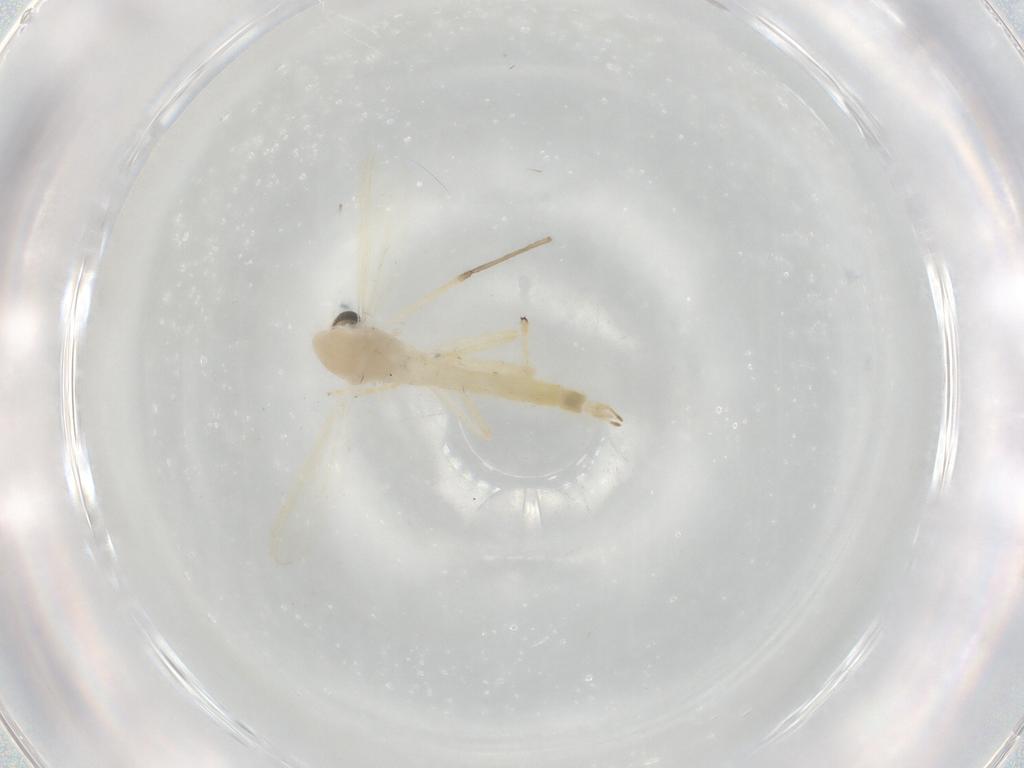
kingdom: Animalia
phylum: Arthropoda
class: Insecta
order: Diptera
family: Chironomidae
